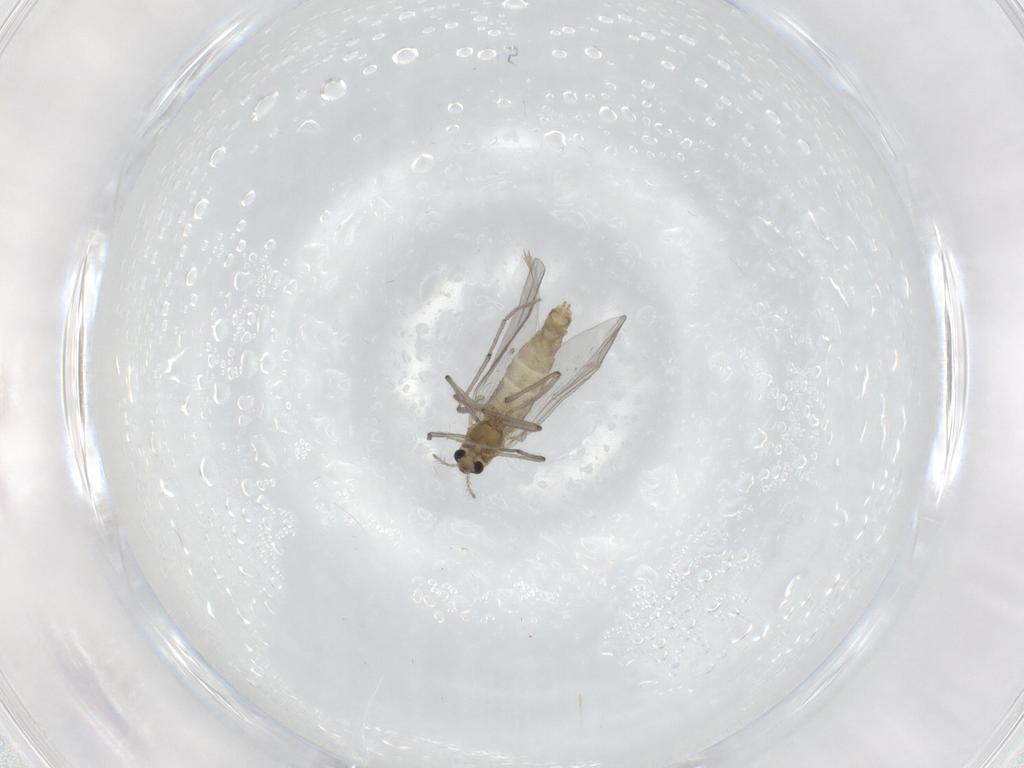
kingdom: Animalia
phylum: Arthropoda
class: Insecta
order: Diptera
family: Chironomidae
